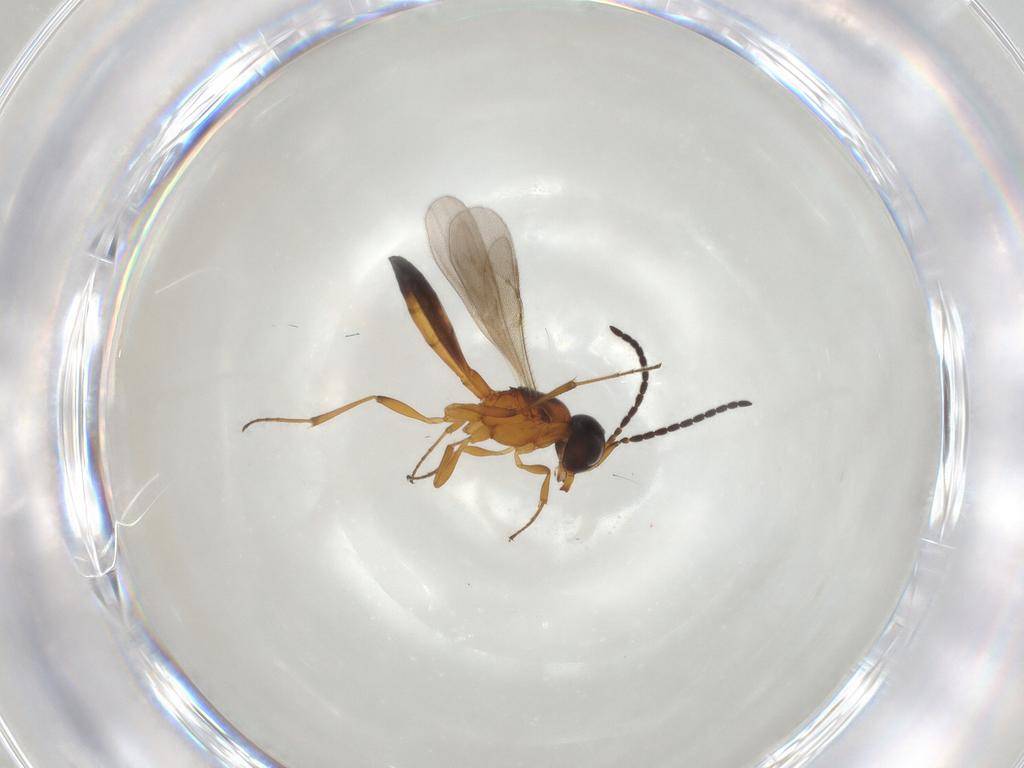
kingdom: Animalia
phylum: Arthropoda
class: Insecta
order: Hymenoptera
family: Scelionidae
